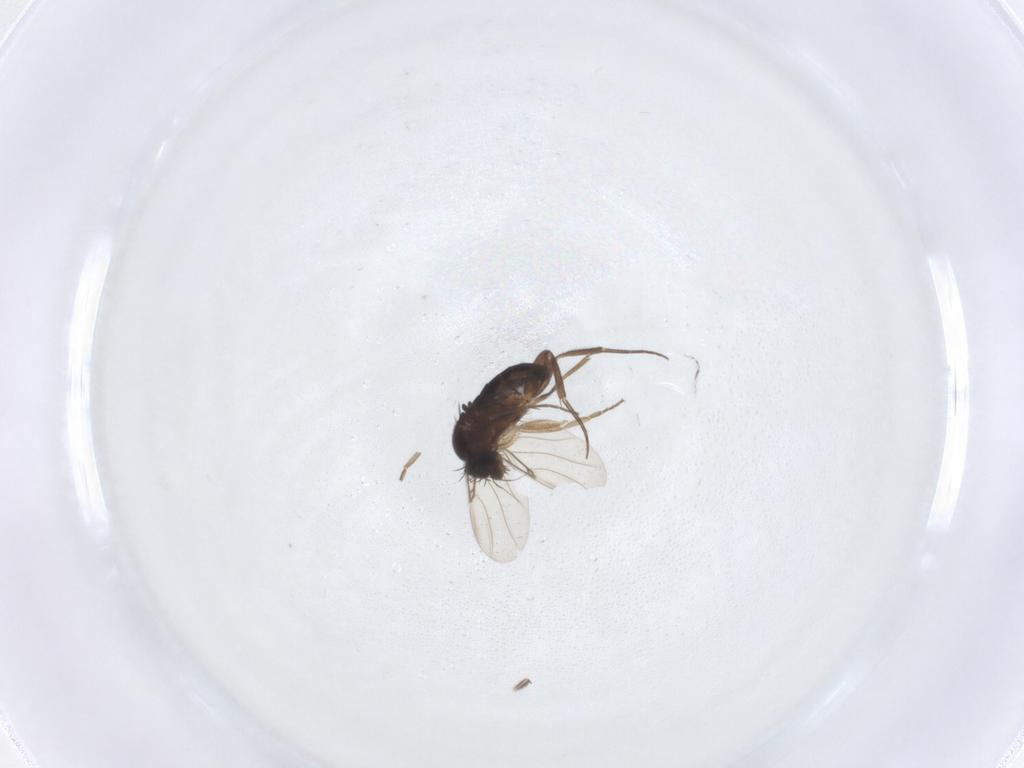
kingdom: Animalia
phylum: Arthropoda
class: Insecta
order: Diptera
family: Phoridae
